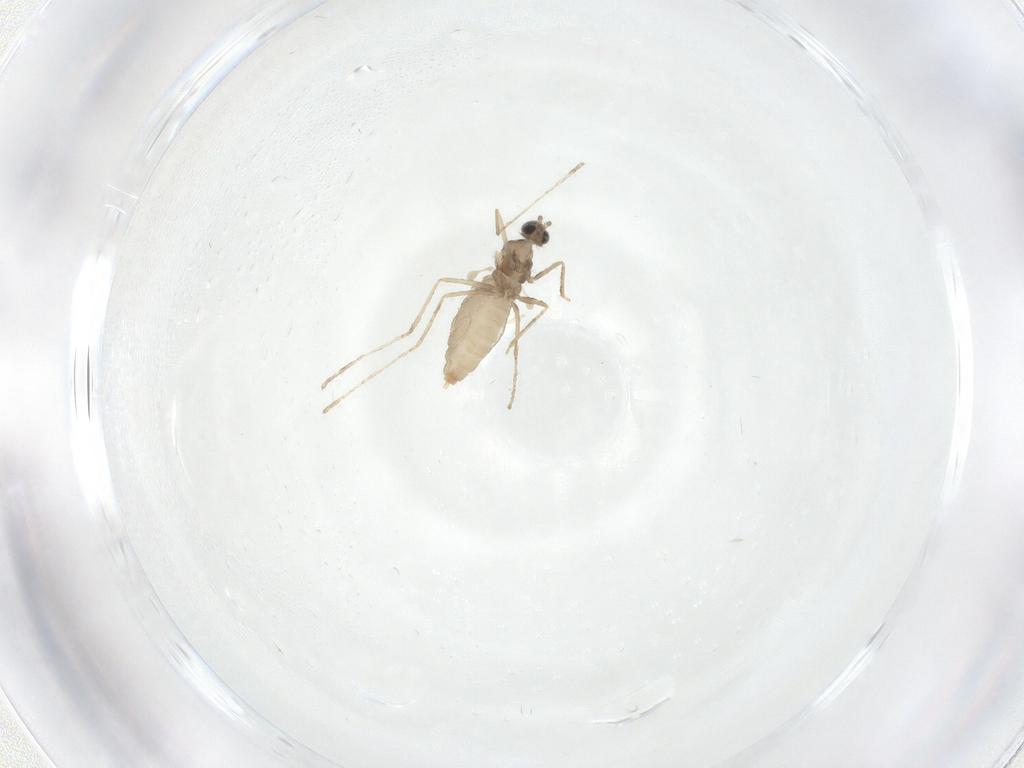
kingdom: Animalia
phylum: Arthropoda
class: Insecta
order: Diptera
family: Cecidomyiidae
